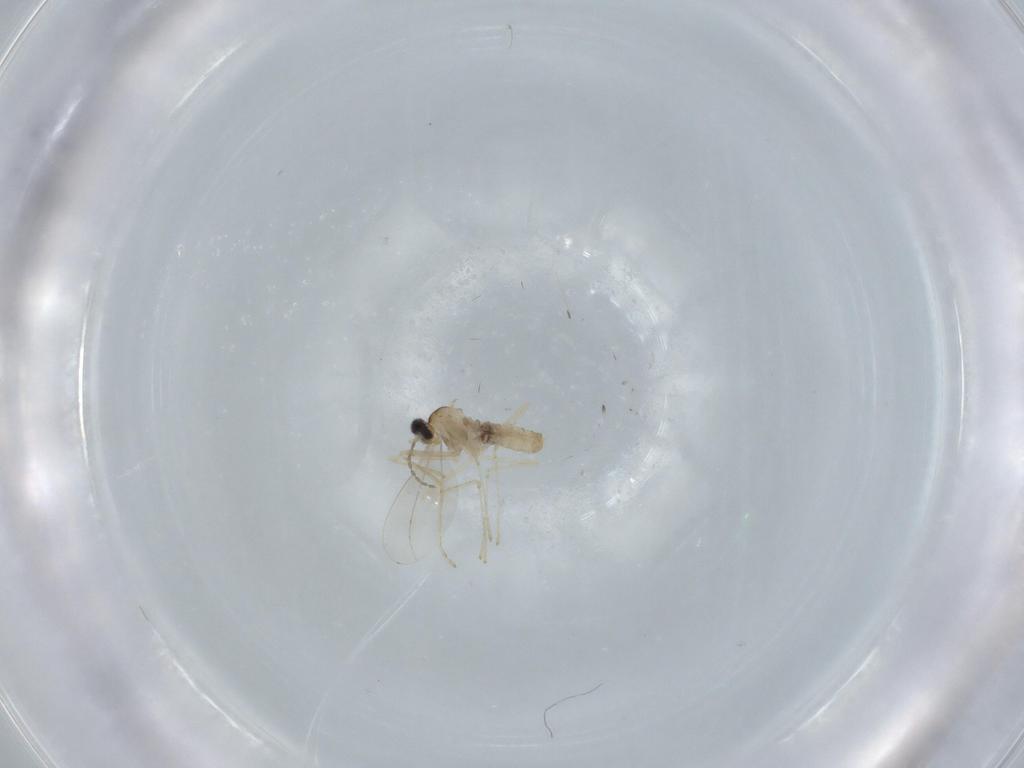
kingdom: Animalia
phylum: Arthropoda
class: Insecta
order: Diptera
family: Cecidomyiidae
